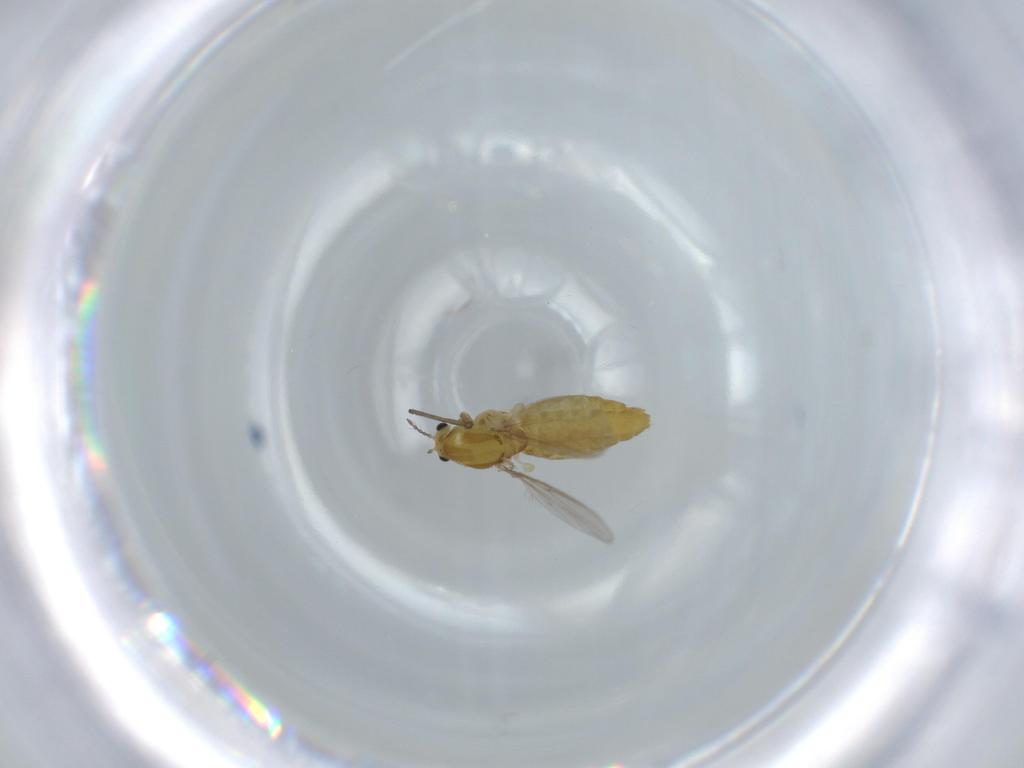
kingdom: Animalia
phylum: Arthropoda
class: Insecta
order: Diptera
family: Chironomidae
